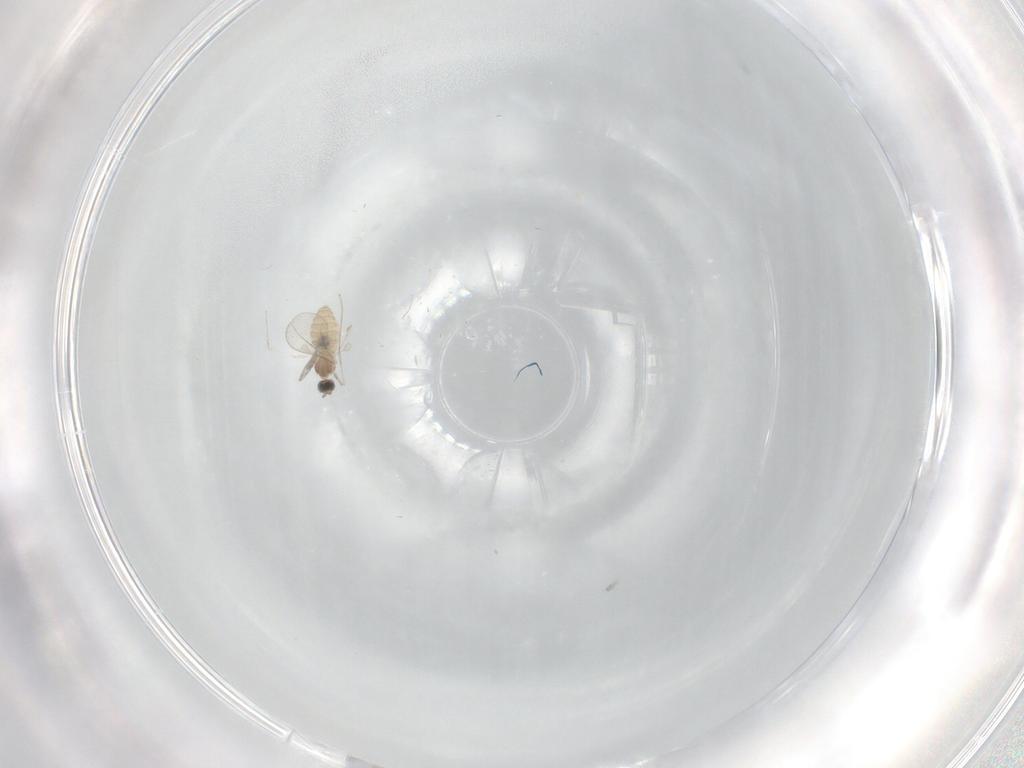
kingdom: Animalia
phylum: Arthropoda
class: Insecta
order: Diptera
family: Cecidomyiidae
